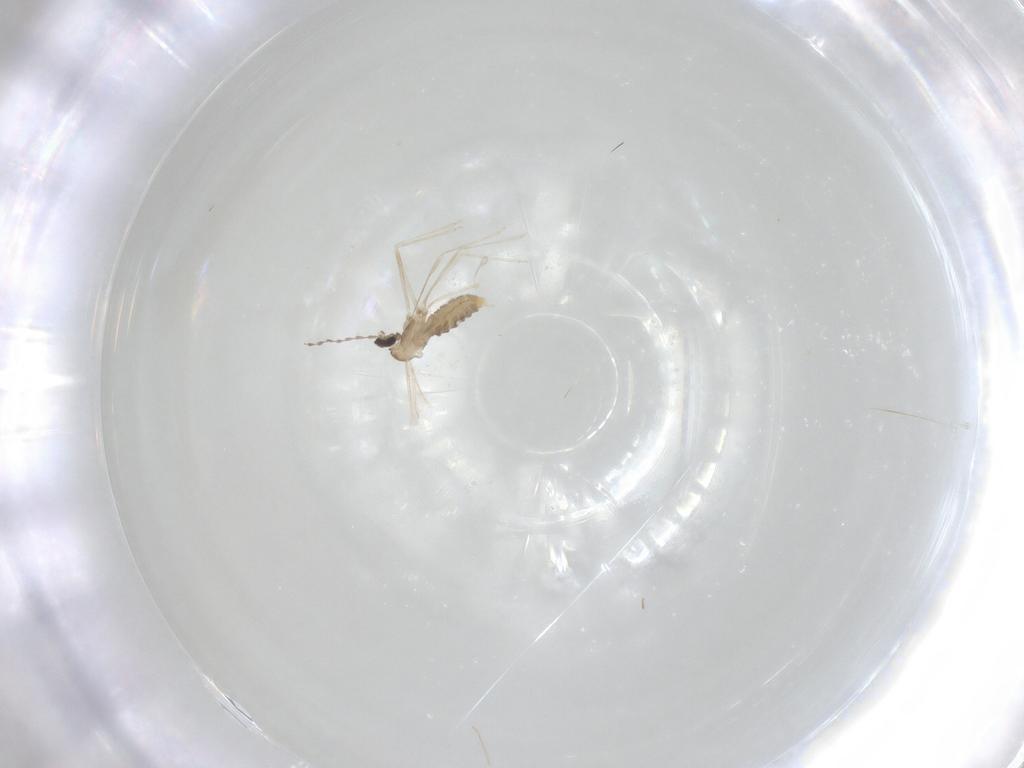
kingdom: Animalia
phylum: Arthropoda
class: Insecta
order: Diptera
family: Cecidomyiidae
